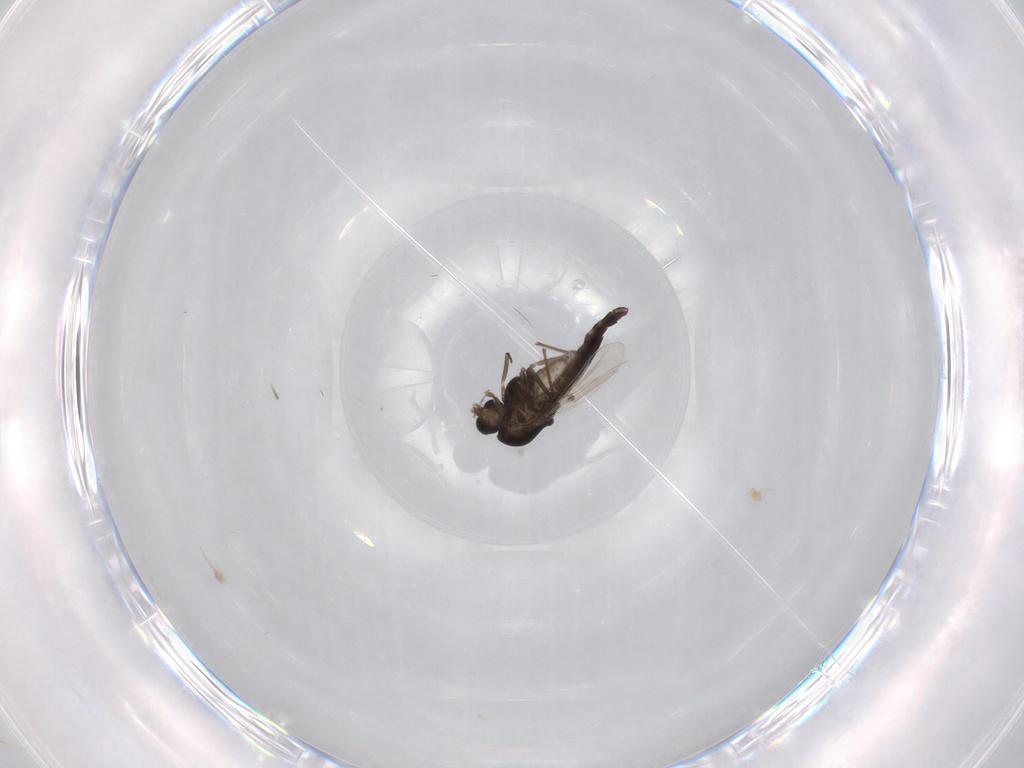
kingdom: Animalia
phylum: Arthropoda
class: Insecta
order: Diptera
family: Chironomidae
